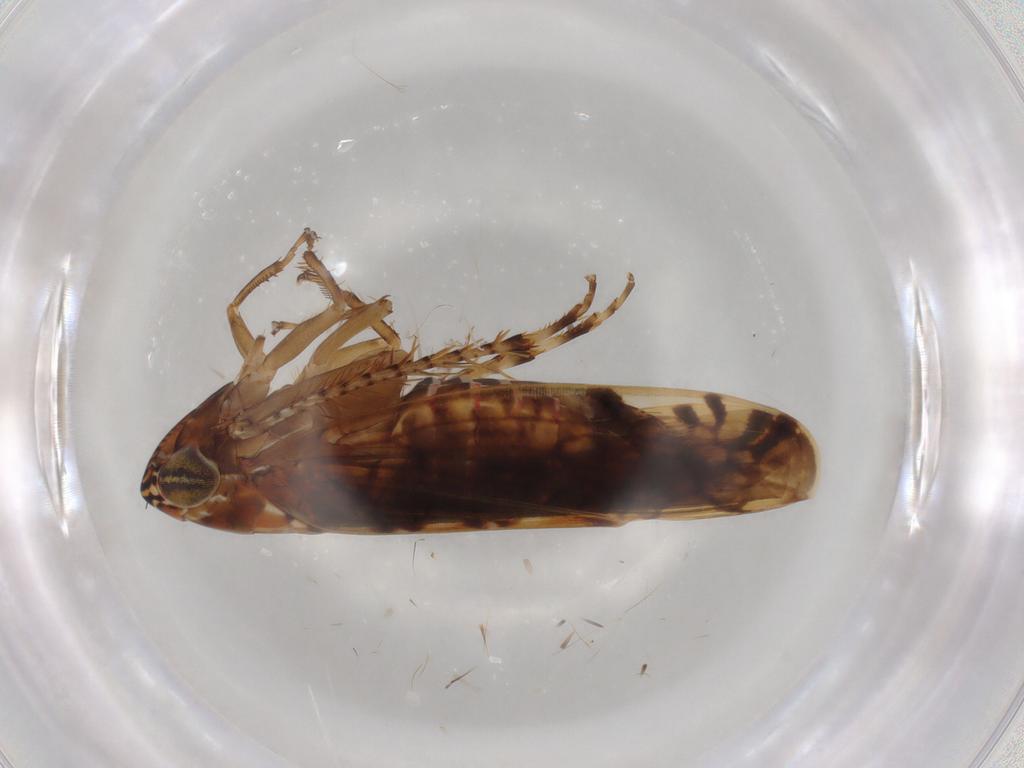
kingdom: Animalia
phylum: Arthropoda
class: Insecta
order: Hemiptera
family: Cicadellidae
